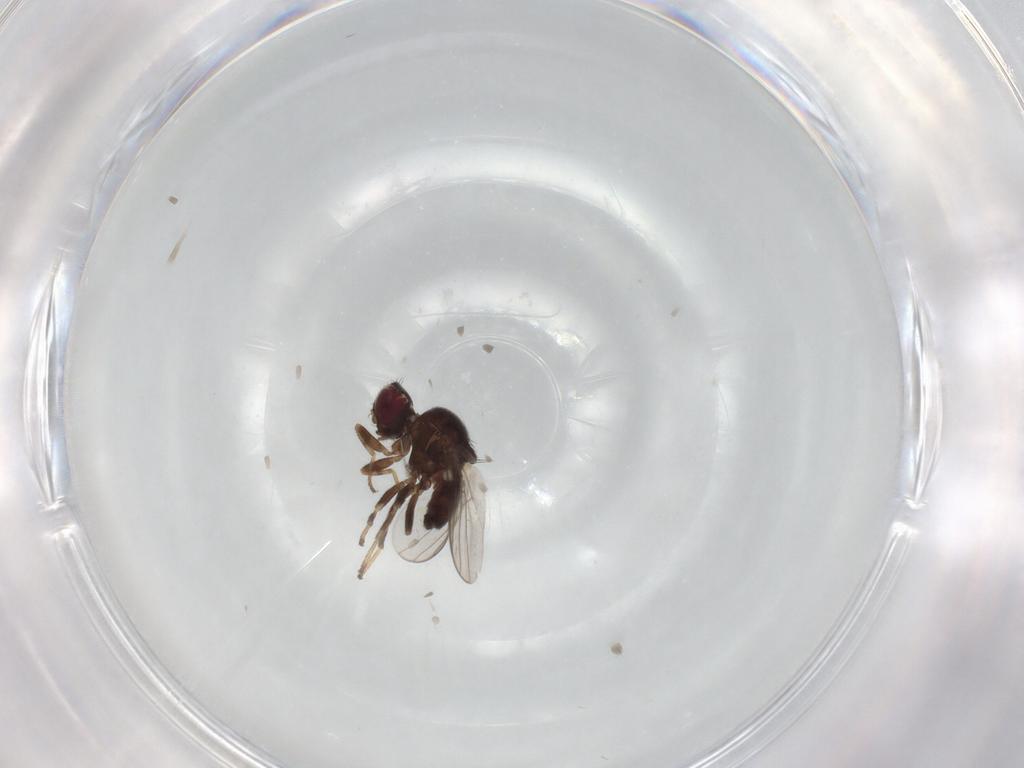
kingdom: Animalia
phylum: Arthropoda
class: Insecta
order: Diptera
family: Chloropidae
